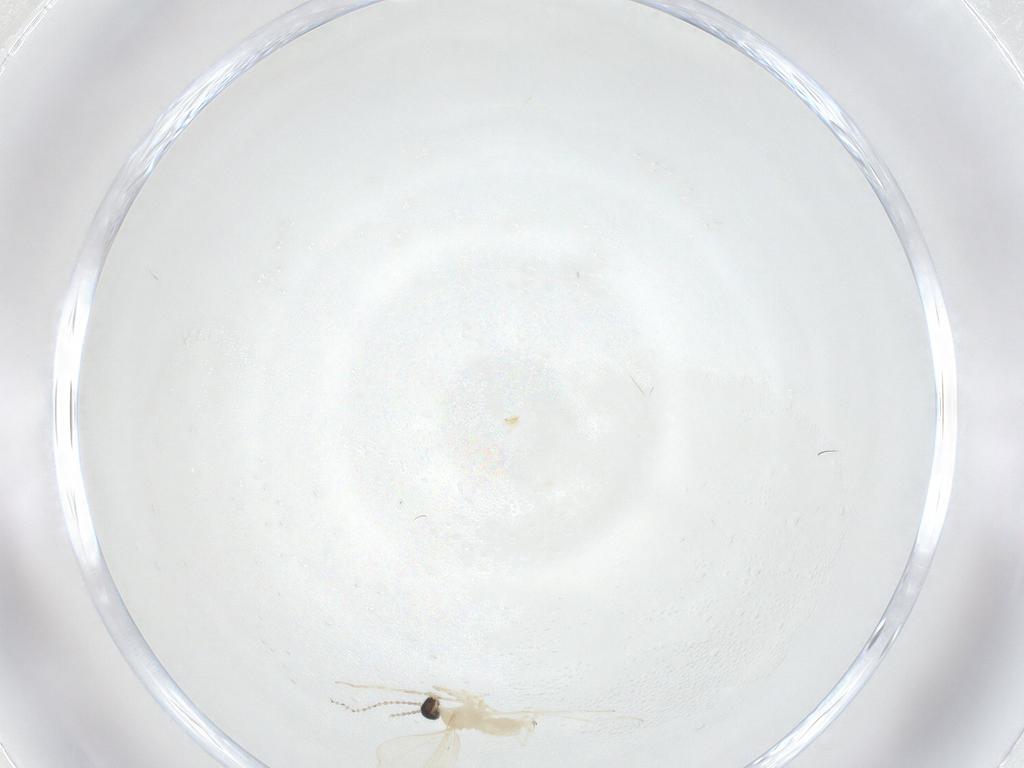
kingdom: Animalia
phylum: Arthropoda
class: Insecta
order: Diptera
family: Cecidomyiidae
